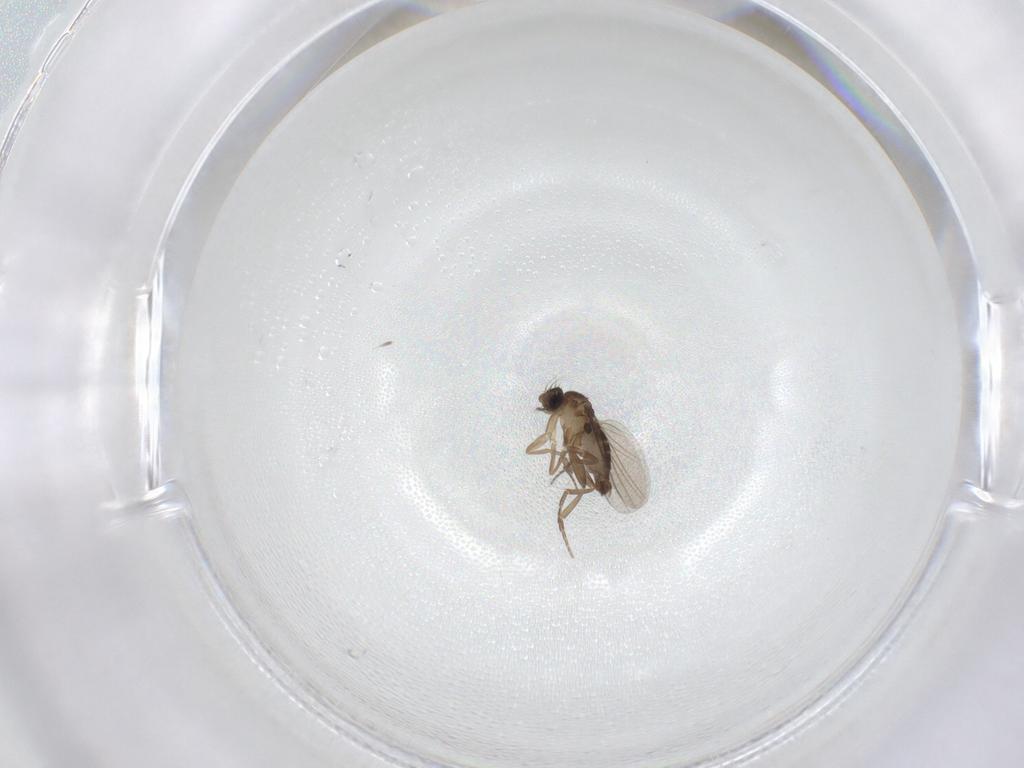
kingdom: Animalia
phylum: Arthropoda
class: Insecta
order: Diptera
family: Phoridae
